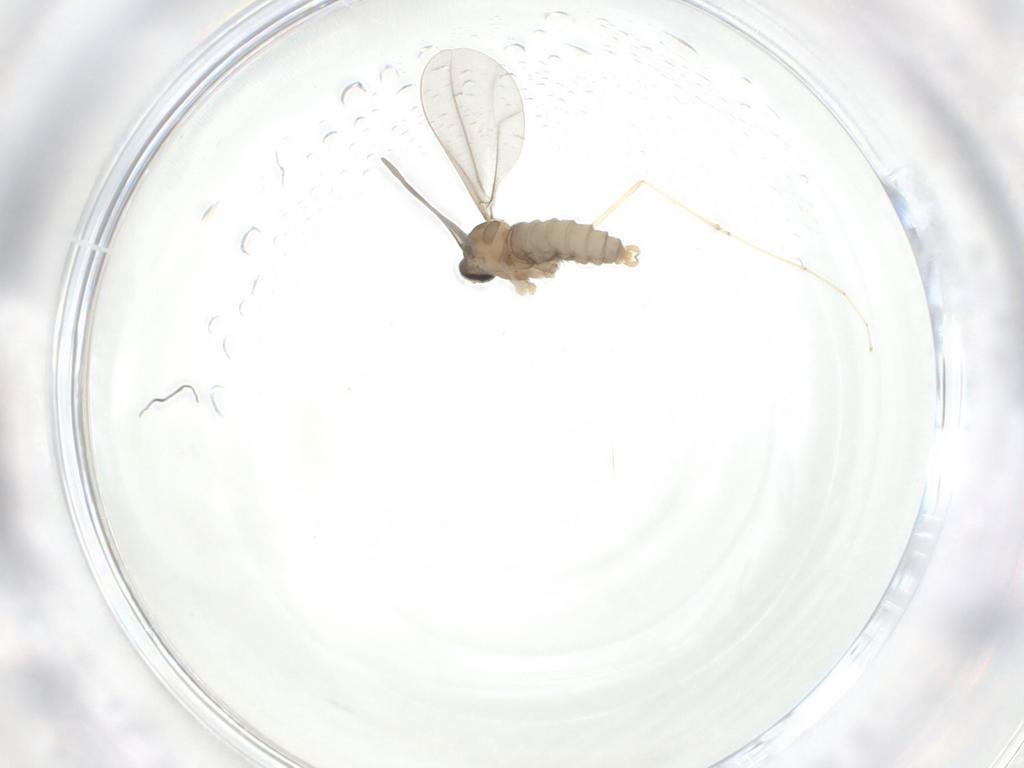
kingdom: Animalia
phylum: Arthropoda
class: Insecta
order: Diptera
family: Cecidomyiidae
